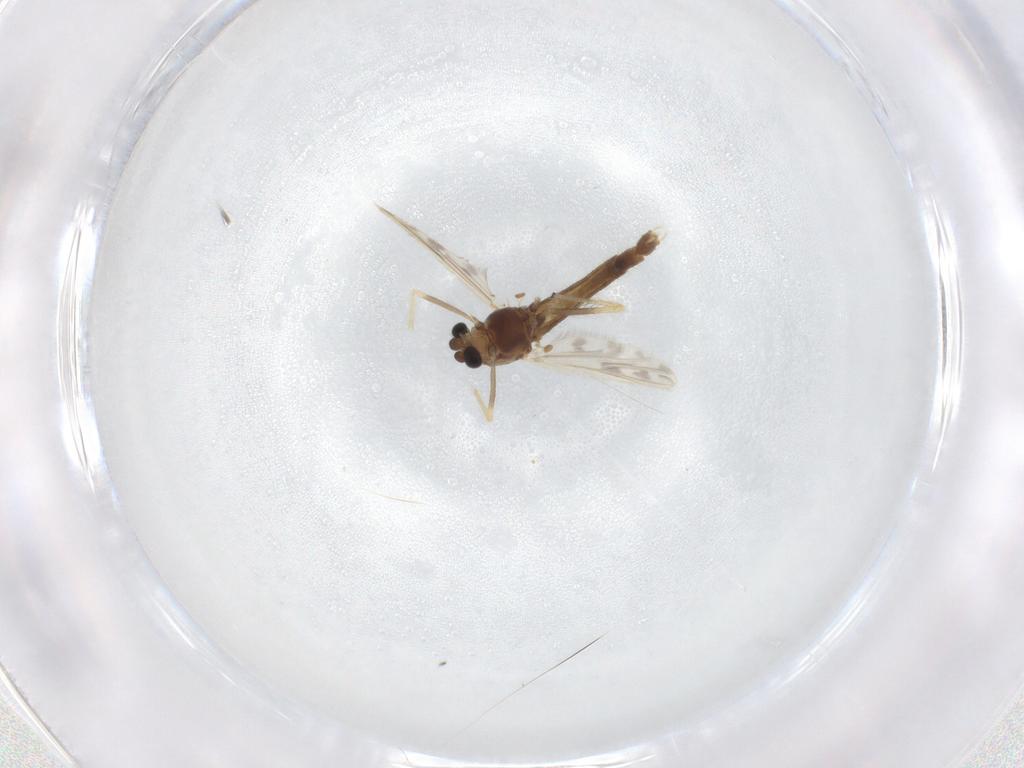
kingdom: Animalia
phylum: Arthropoda
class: Insecta
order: Diptera
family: Chironomidae
